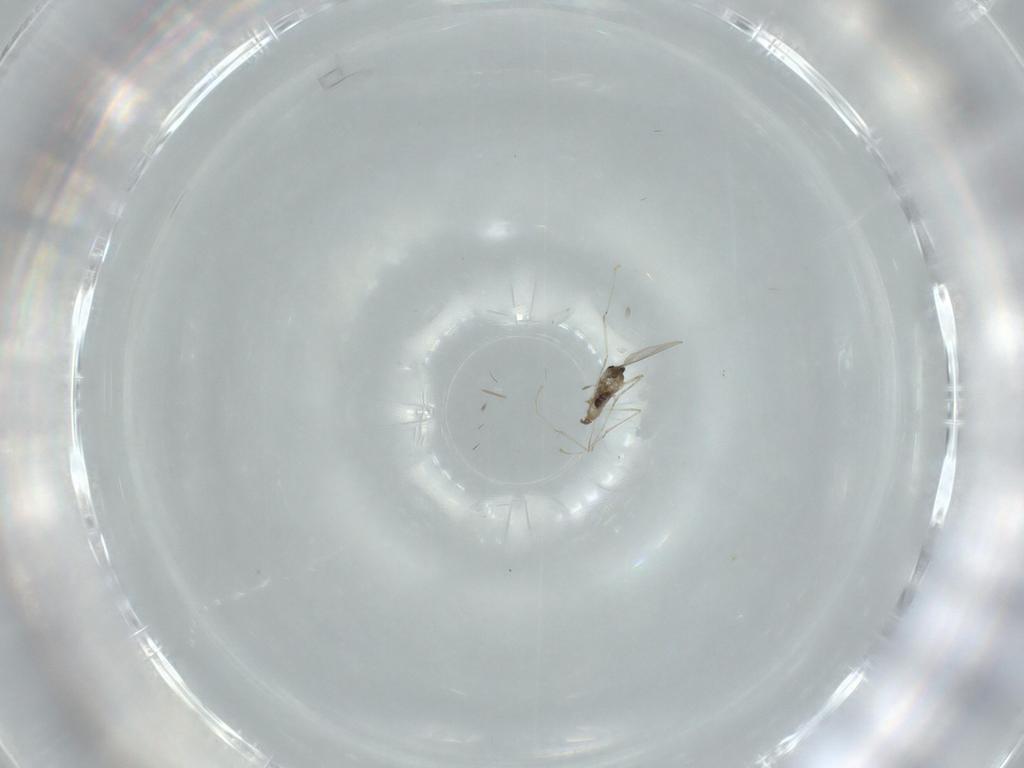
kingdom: Animalia
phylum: Arthropoda
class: Insecta
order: Diptera
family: Cecidomyiidae
